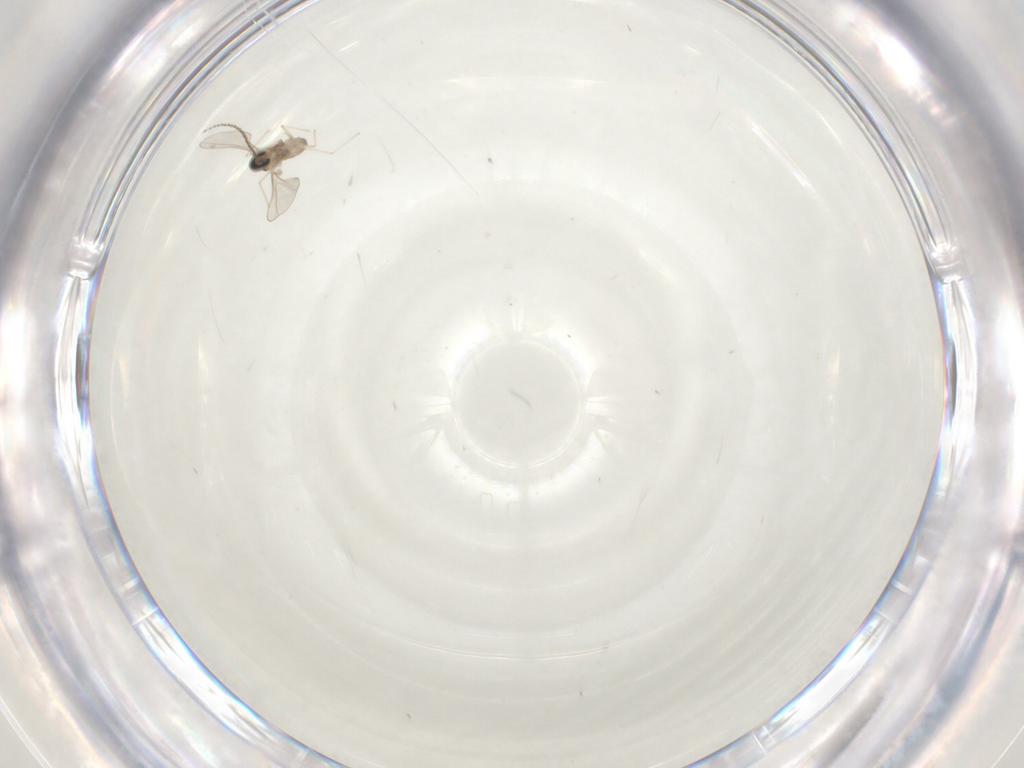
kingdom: Animalia
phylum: Arthropoda
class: Insecta
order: Diptera
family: Cecidomyiidae
